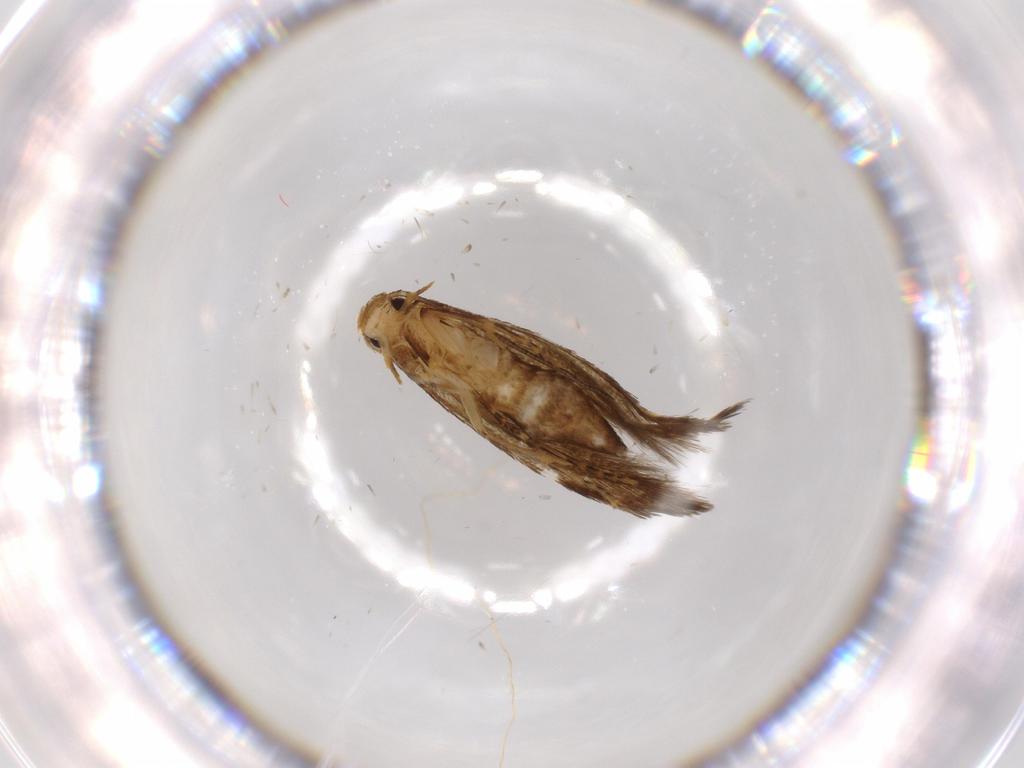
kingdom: Animalia
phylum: Arthropoda
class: Insecta
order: Lepidoptera
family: Tineidae
